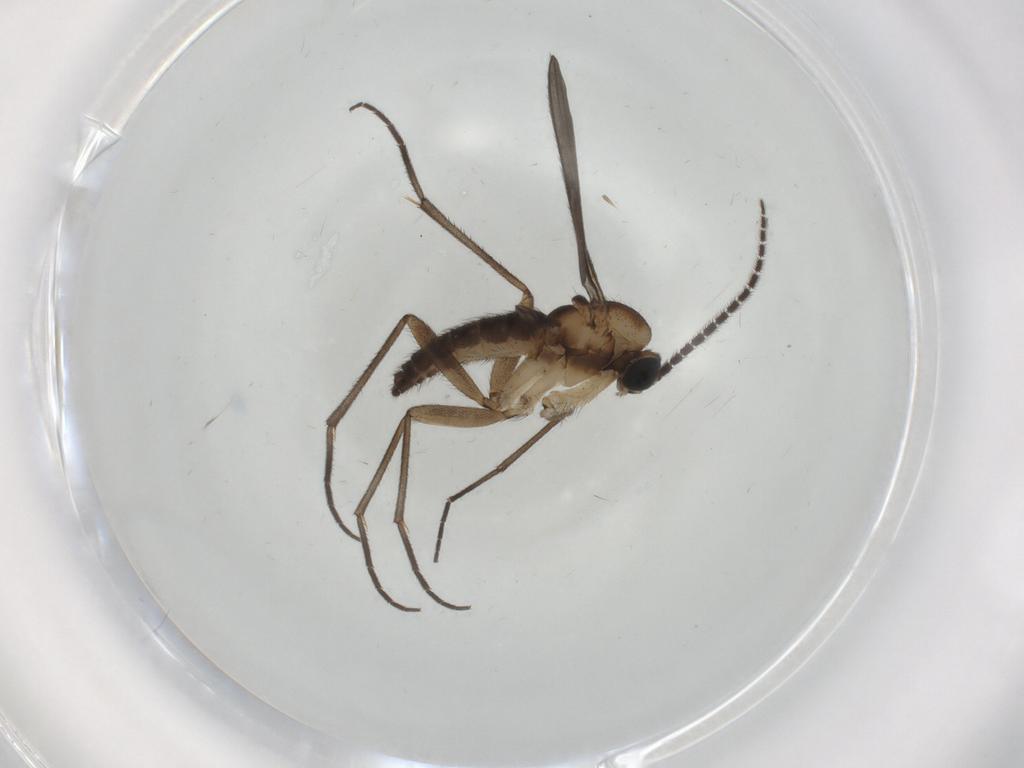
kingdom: Animalia
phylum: Arthropoda
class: Insecta
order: Diptera
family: Sciaridae
